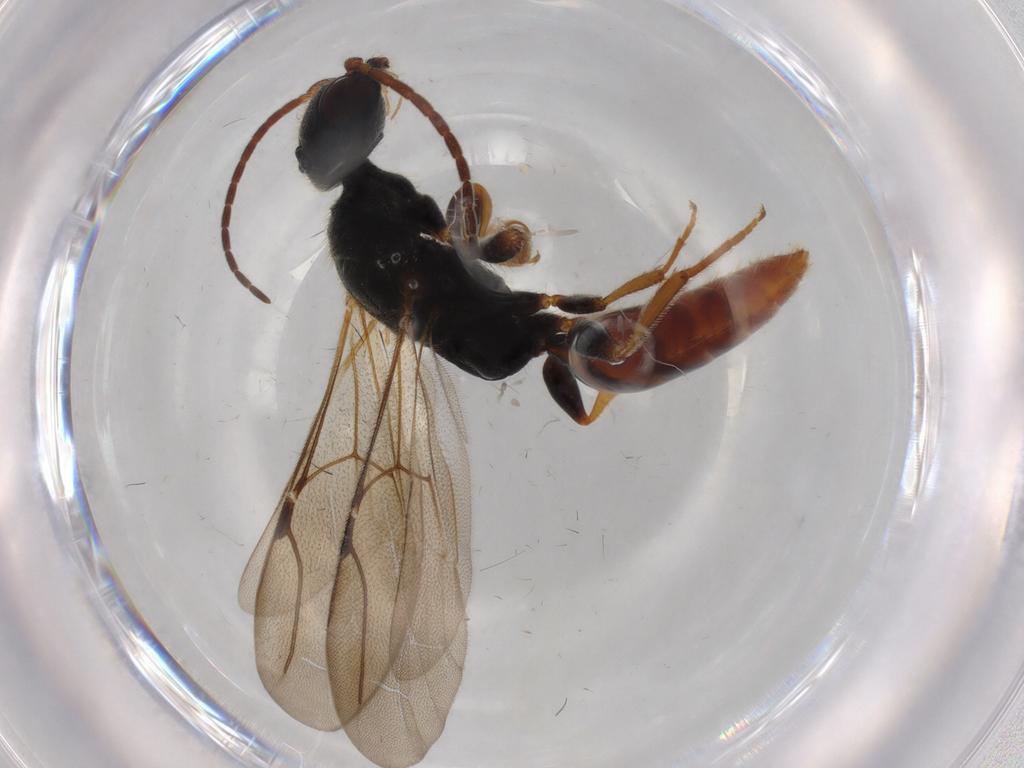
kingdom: Animalia
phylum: Arthropoda
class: Insecta
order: Hymenoptera
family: Bethylidae
